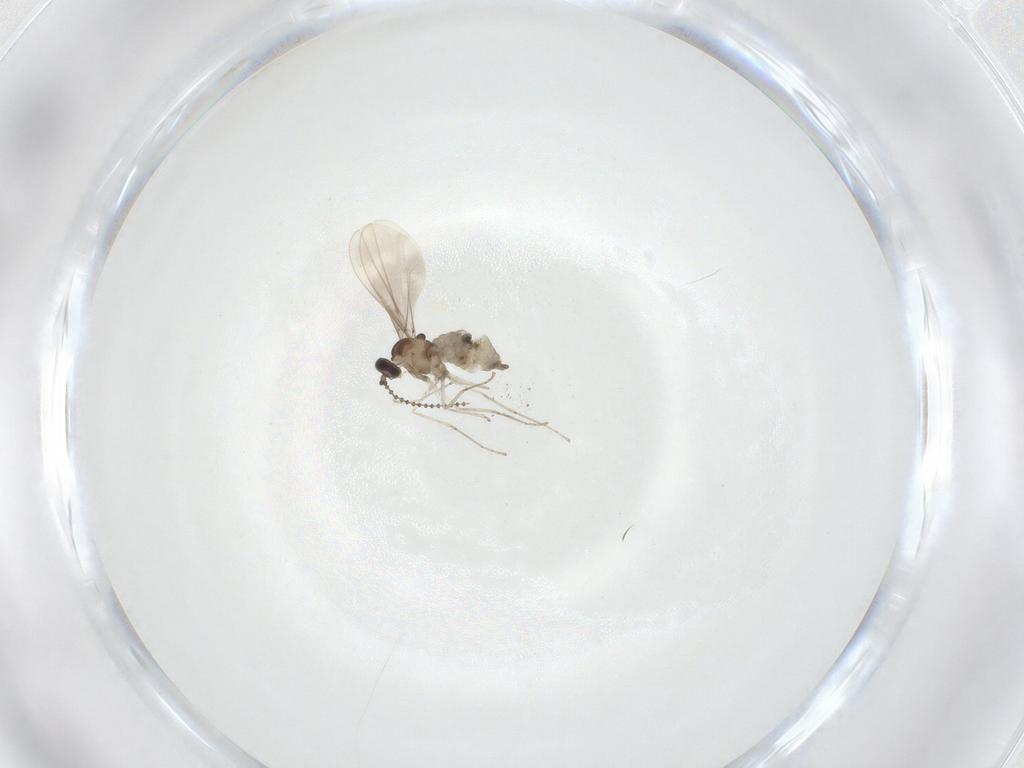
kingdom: Animalia
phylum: Arthropoda
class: Insecta
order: Diptera
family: Cecidomyiidae
